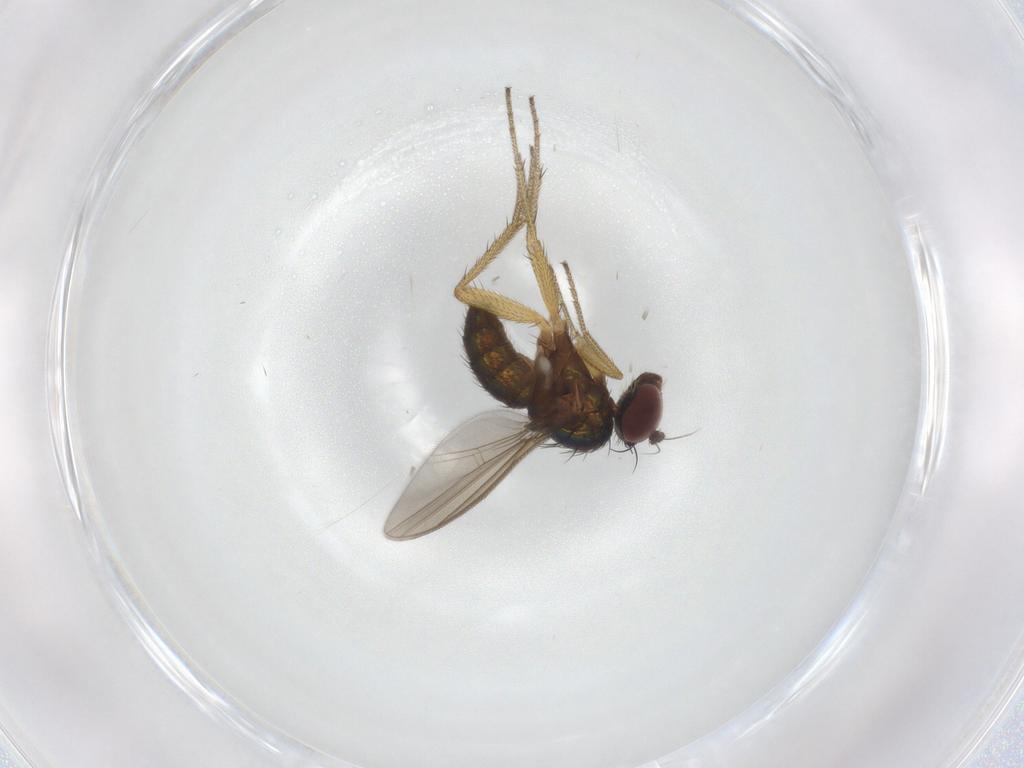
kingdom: Animalia
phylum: Arthropoda
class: Insecta
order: Diptera
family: Dolichopodidae
